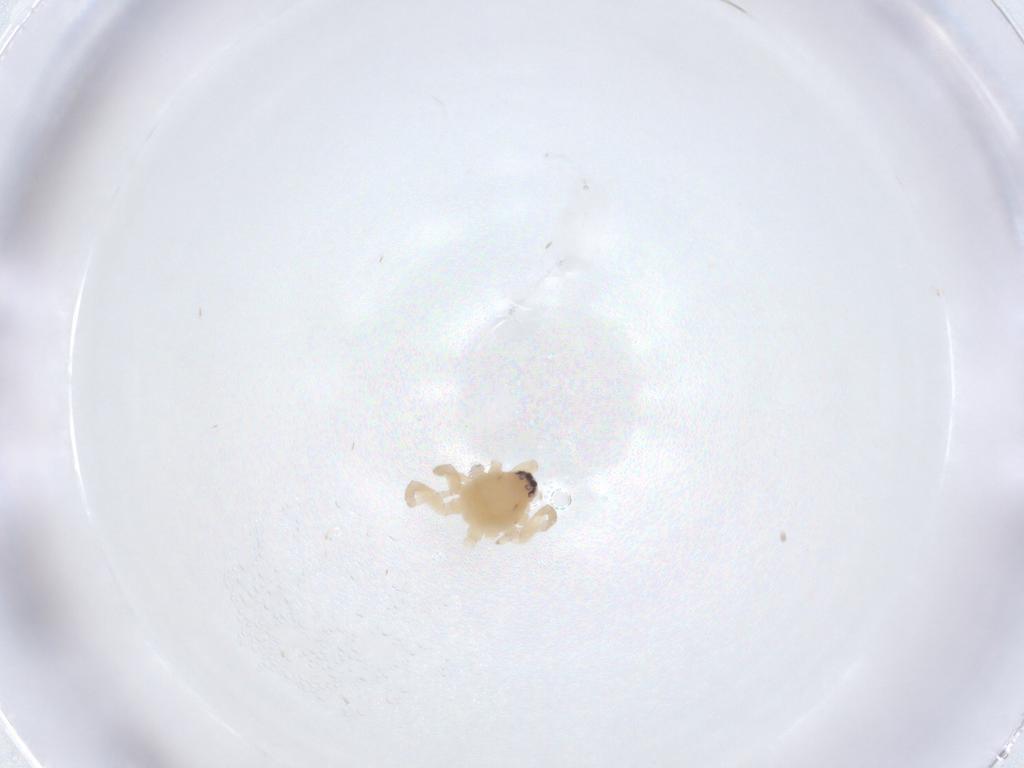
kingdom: Animalia
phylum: Arthropoda
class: Arachnida
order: Araneae
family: Corinnidae
